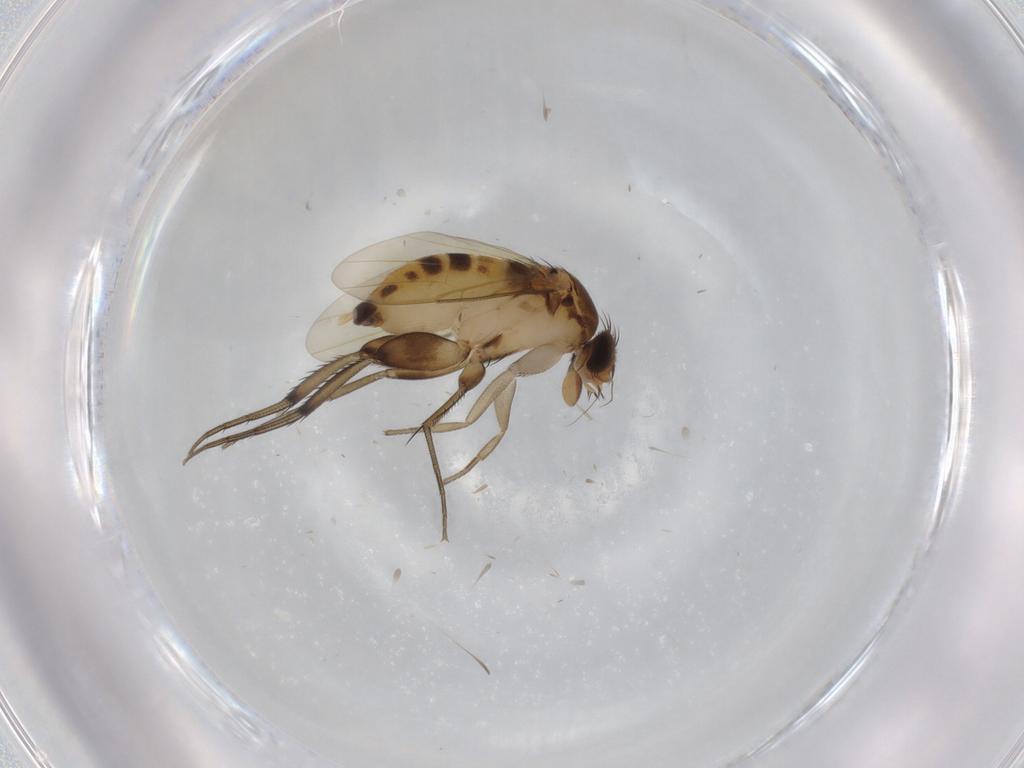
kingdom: Animalia
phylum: Arthropoda
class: Insecta
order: Diptera
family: Phoridae
